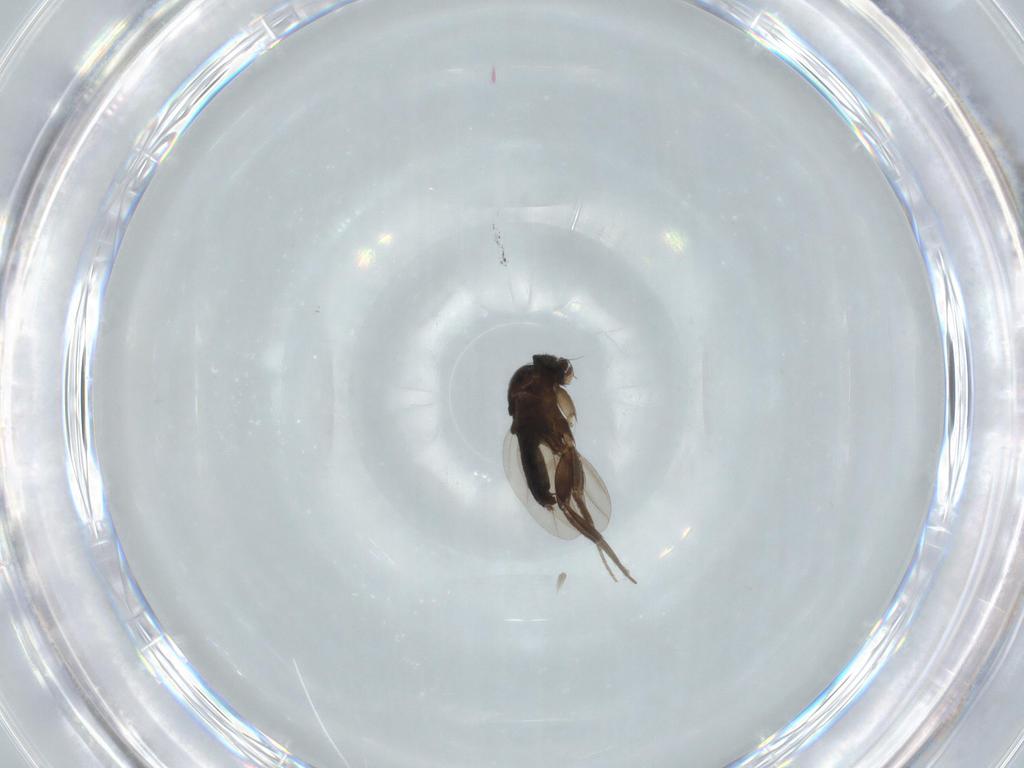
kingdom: Animalia
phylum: Arthropoda
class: Insecta
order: Diptera
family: Phoridae
